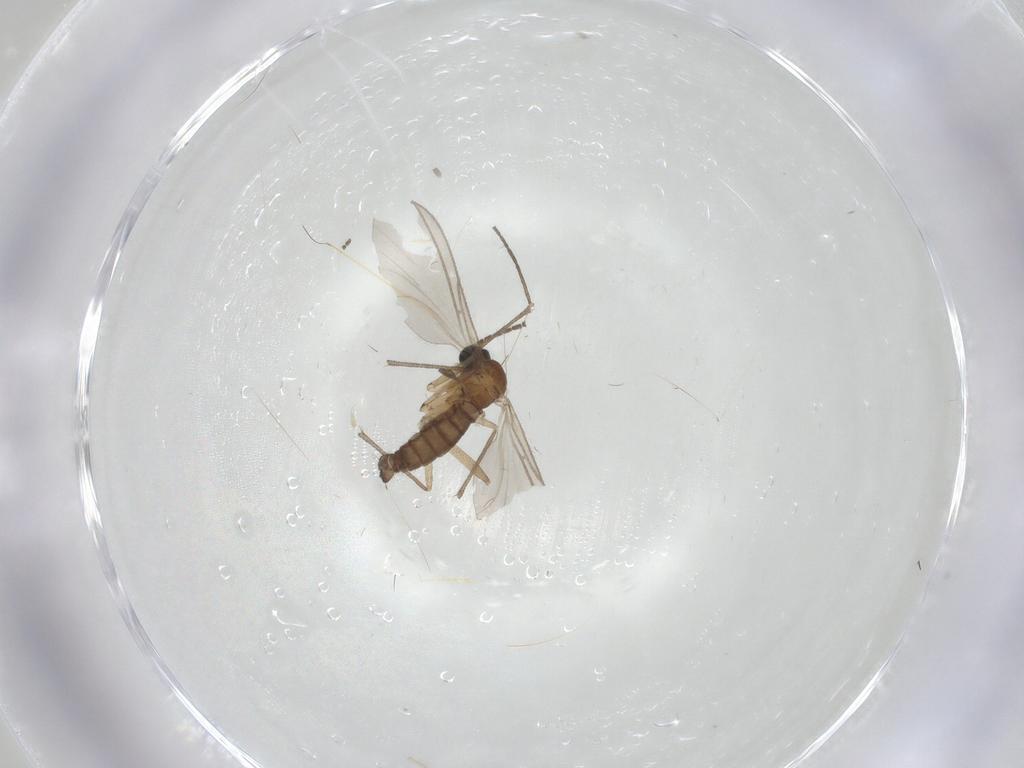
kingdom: Animalia
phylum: Arthropoda
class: Insecta
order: Diptera
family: Sciaridae
